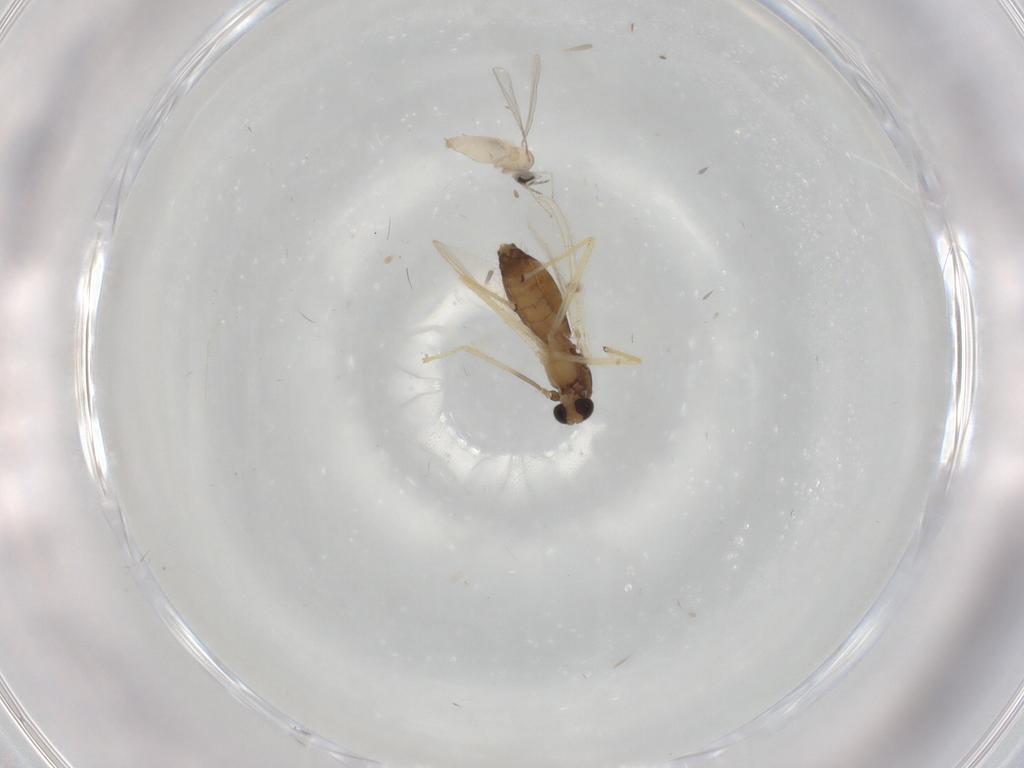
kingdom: Animalia
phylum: Arthropoda
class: Insecta
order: Diptera
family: Chironomidae
